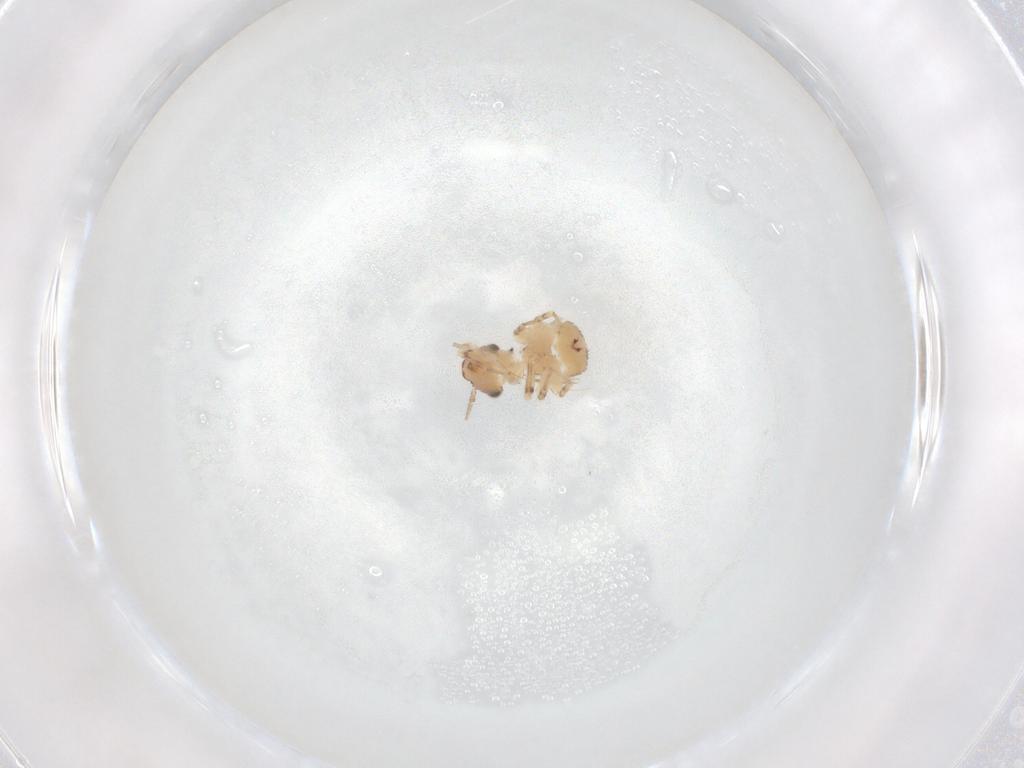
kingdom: Animalia
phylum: Arthropoda
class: Insecta
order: Psocodea
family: Lepidopsocidae
